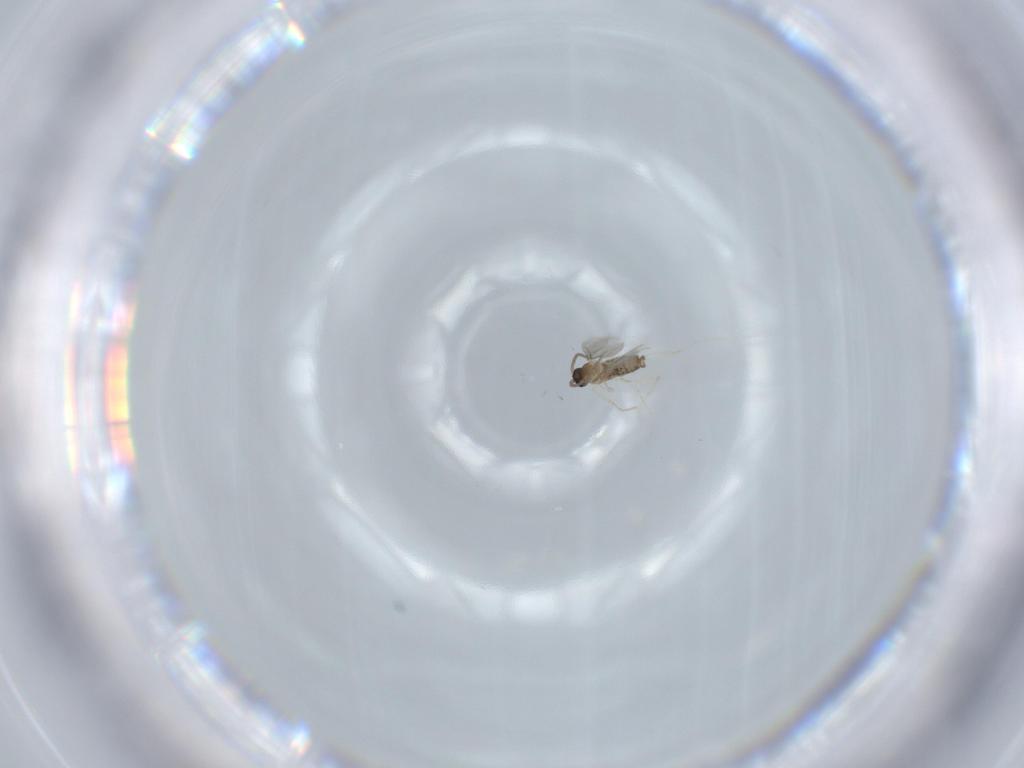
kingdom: Animalia
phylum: Arthropoda
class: Insecta
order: Diptera
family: Cecidomyiidae
